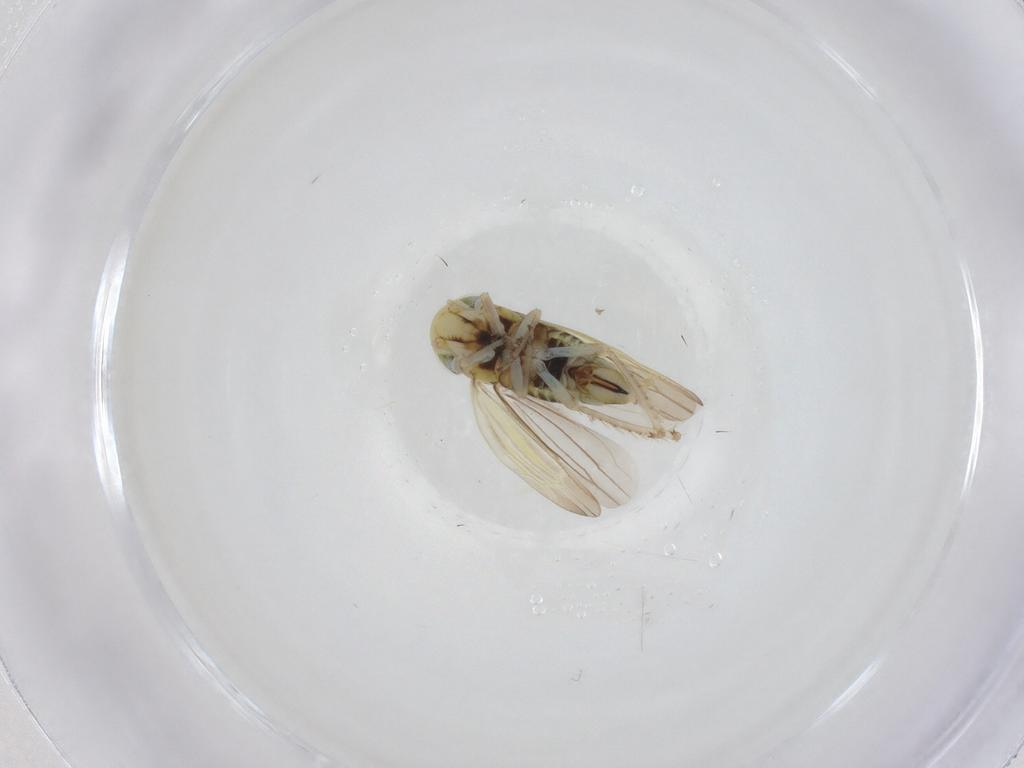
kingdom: Animalia
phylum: Arthropoda
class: Insecta
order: Hemiptera
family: Cicadellidae
